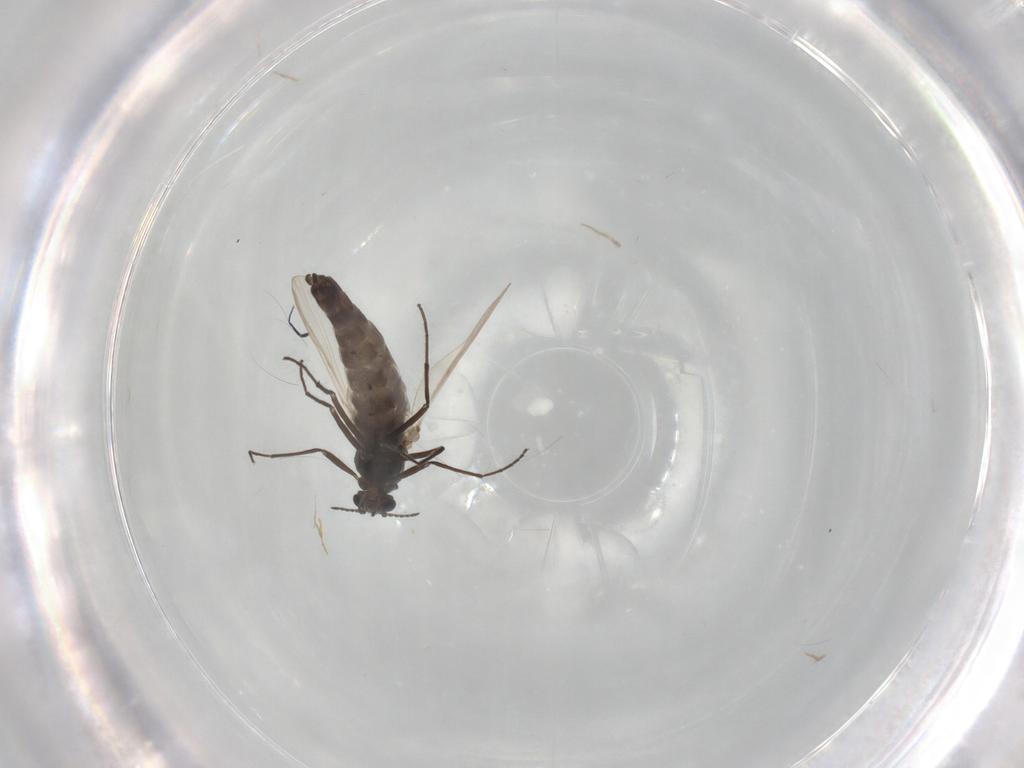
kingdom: Animalia
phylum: Arthropoda
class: Insecta
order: Diptera
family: Chironomidae
